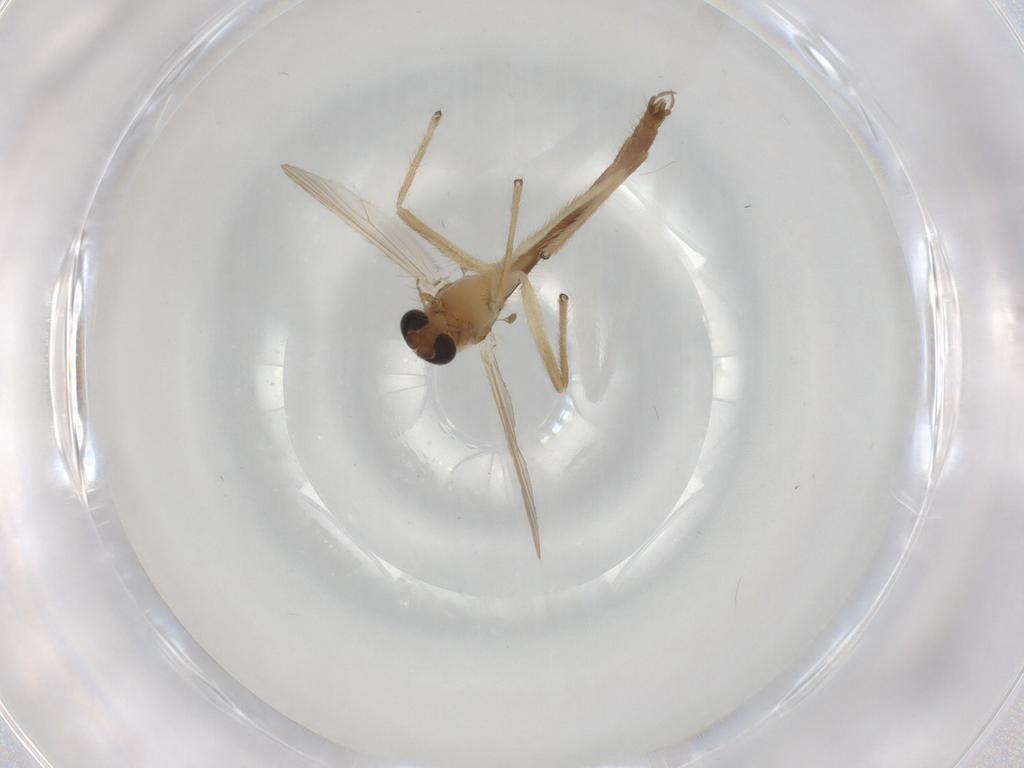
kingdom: Animalia
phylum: Arthropoda
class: Insecta
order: Diptera
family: Chironomidae
